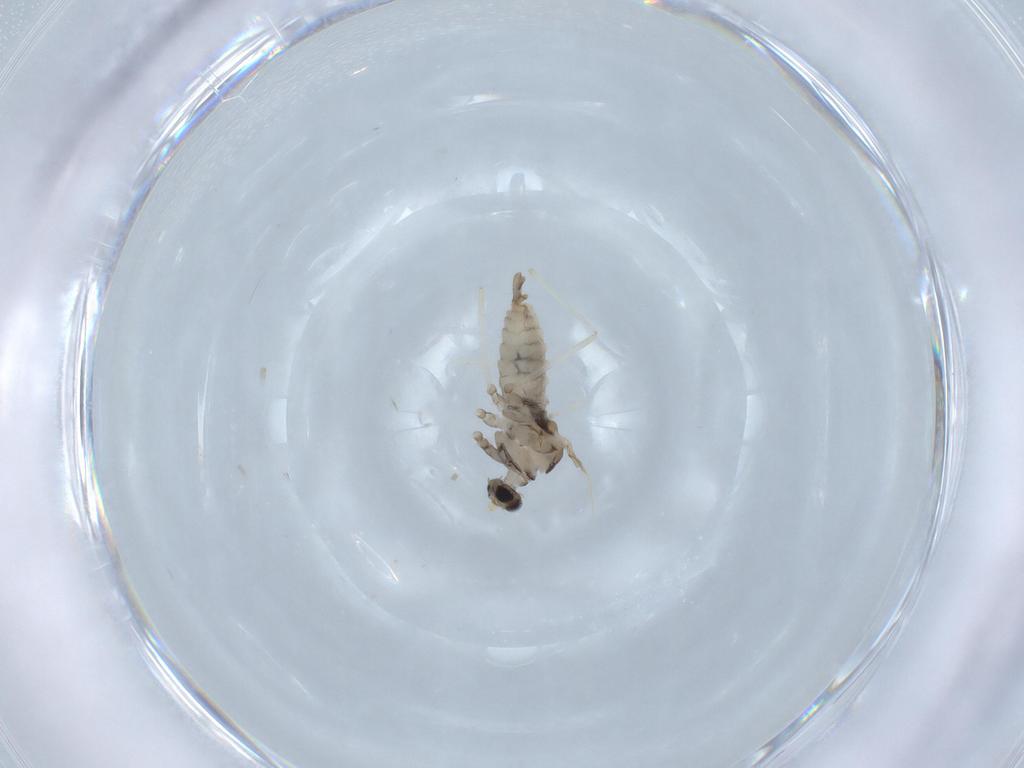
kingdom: Animalia
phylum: Arthropoda
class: Insecta
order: Diptera
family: Cecidomyiidae
